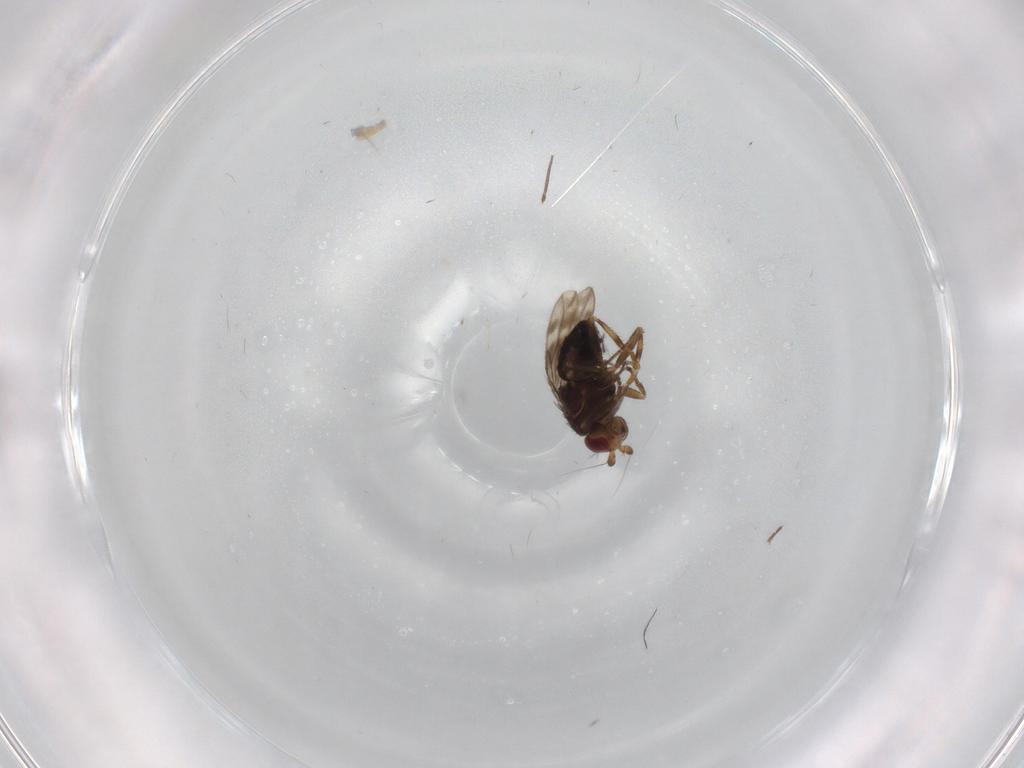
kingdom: Animalia
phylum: Arthropoda
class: Insecta
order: Diptera
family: Sphaeroceridae
